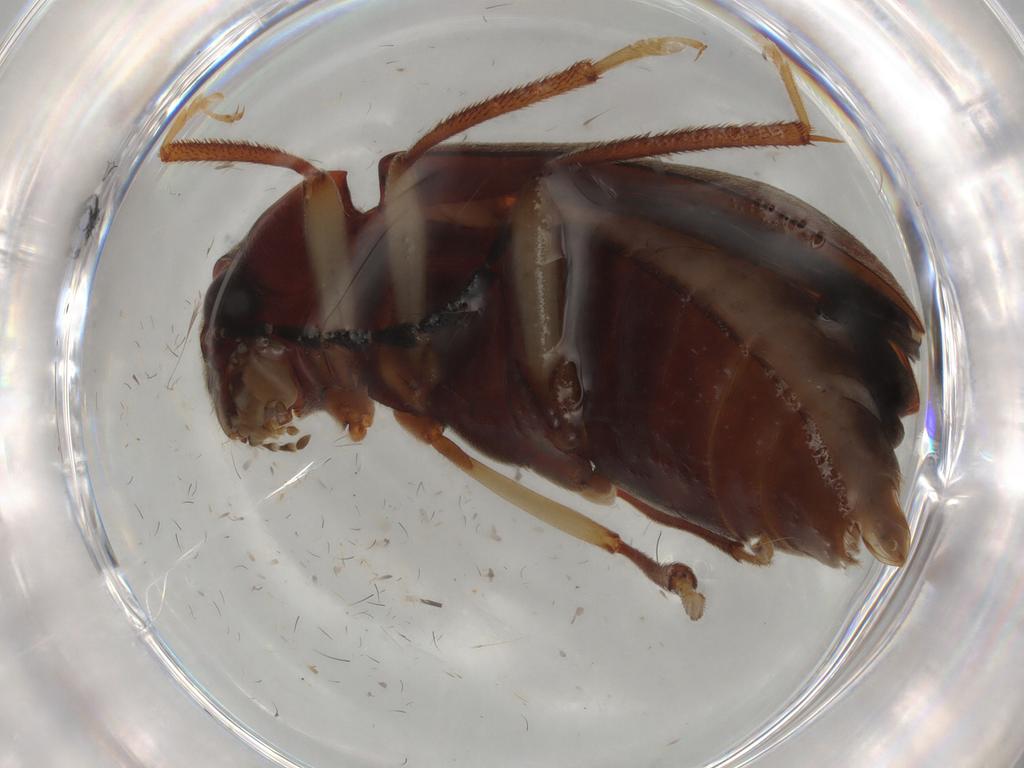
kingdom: Animalia
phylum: Arthropoda
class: Insecta
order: Coleoptera
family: Ptilodactylidae
